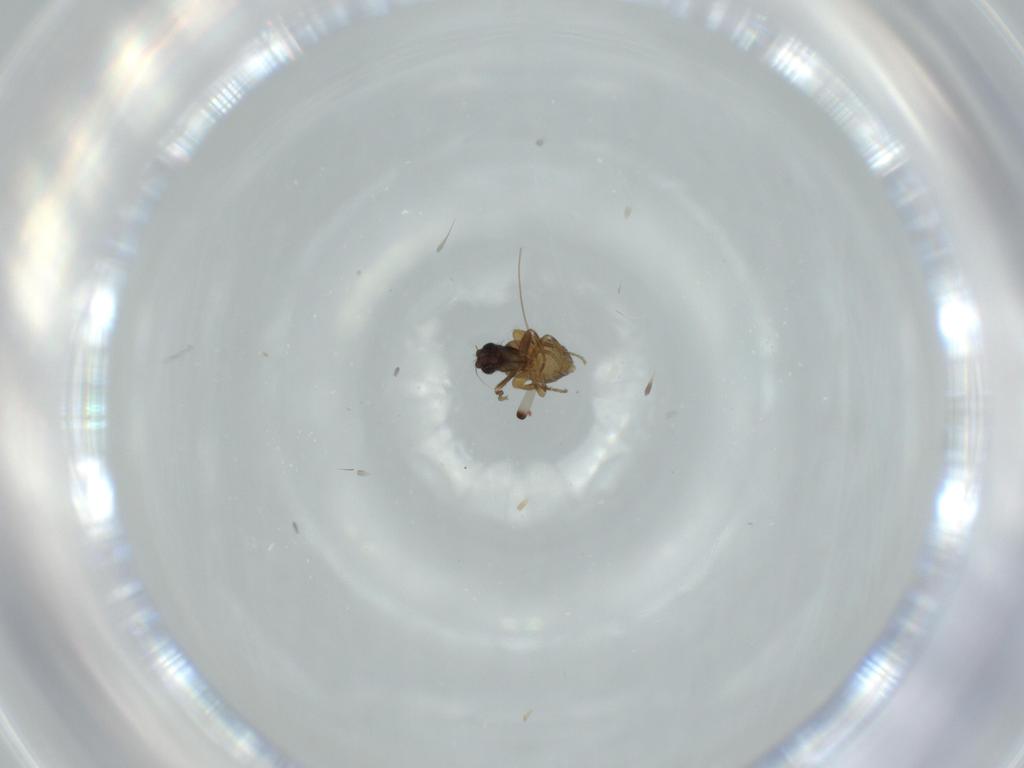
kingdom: Animalia
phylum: Arthropoda
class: Insecta
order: Diptera
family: Phoridae
